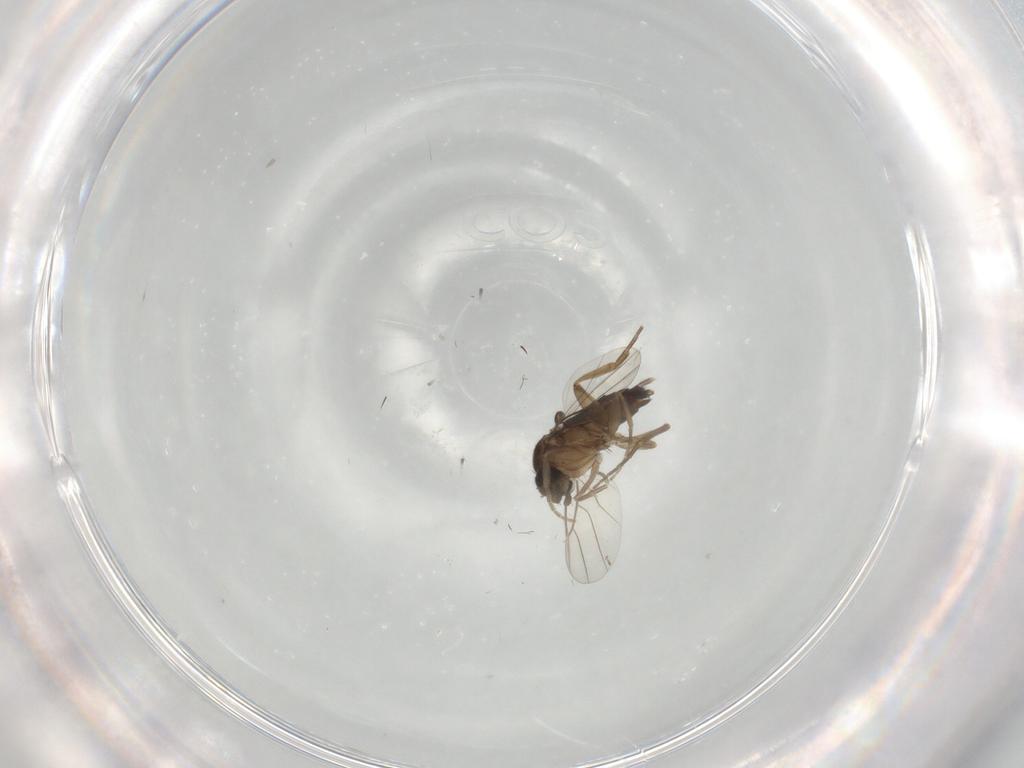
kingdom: Animalia
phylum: Arthropoda
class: Insecta
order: Diptera
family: Phoridae
